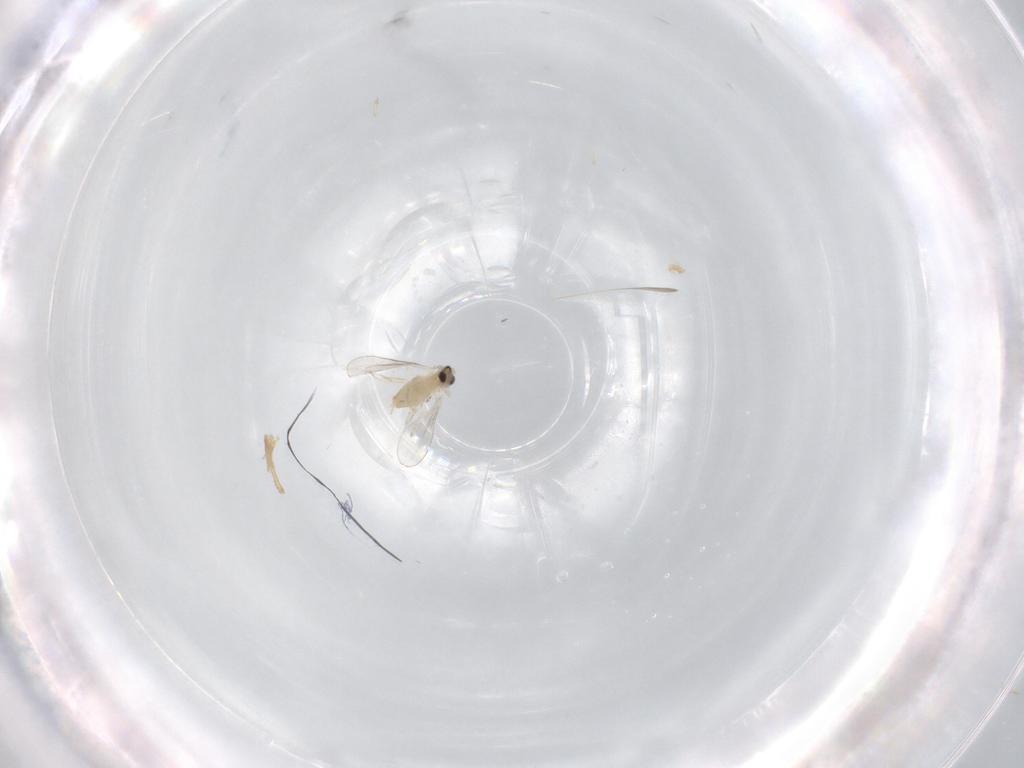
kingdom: Animalia
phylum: Arthropoda
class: Insecta
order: Diptera
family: Cecidomyiidae
